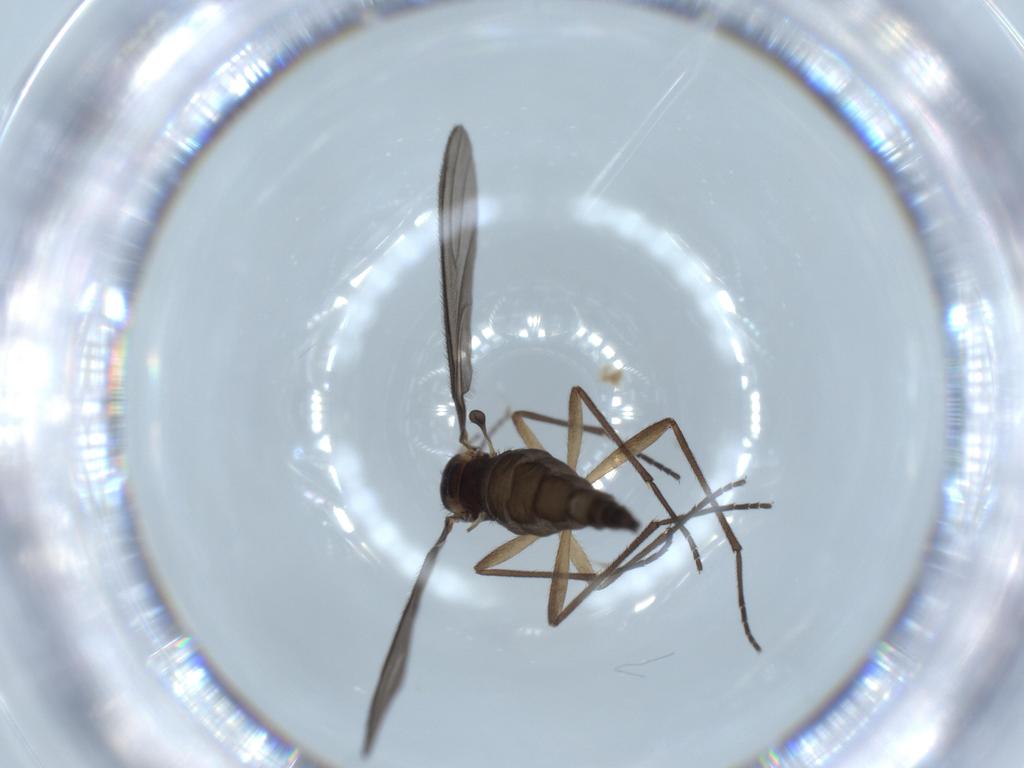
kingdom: Animalia
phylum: Arthropoda
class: Insecta
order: Diptera
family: Sciaridae
